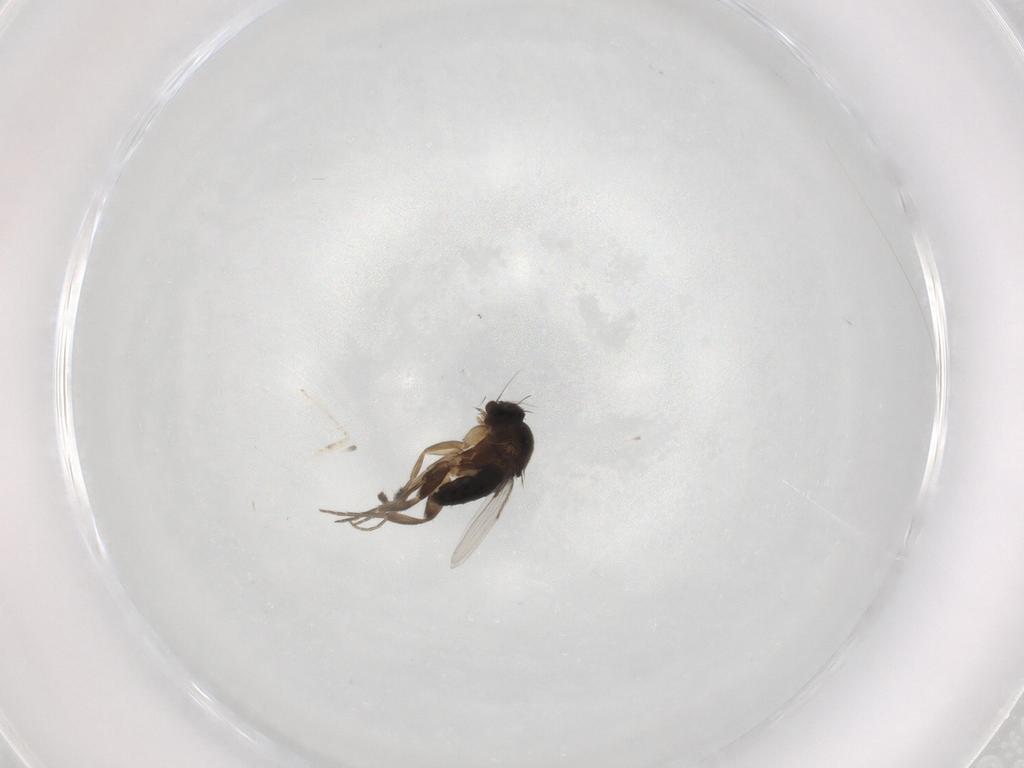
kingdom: Animalia
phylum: Arthropoda
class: Insecta
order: Diptera
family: Phoridae
